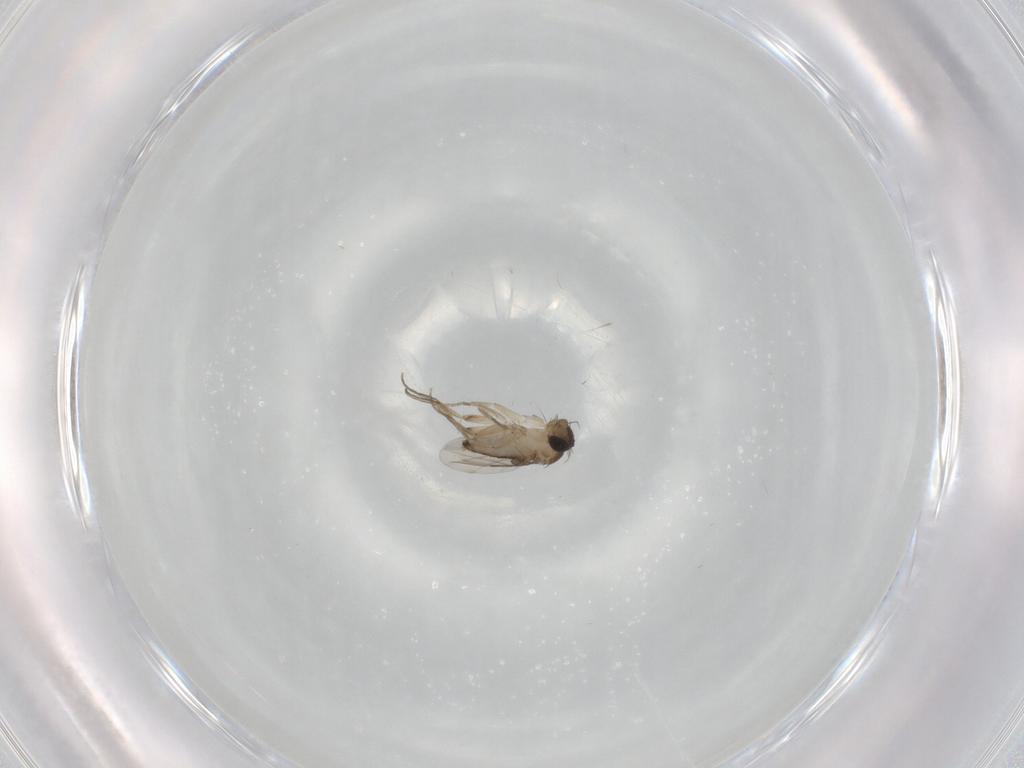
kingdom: Animalia
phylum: Arthropoda
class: Insecta
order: Diptera
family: Phoridae
